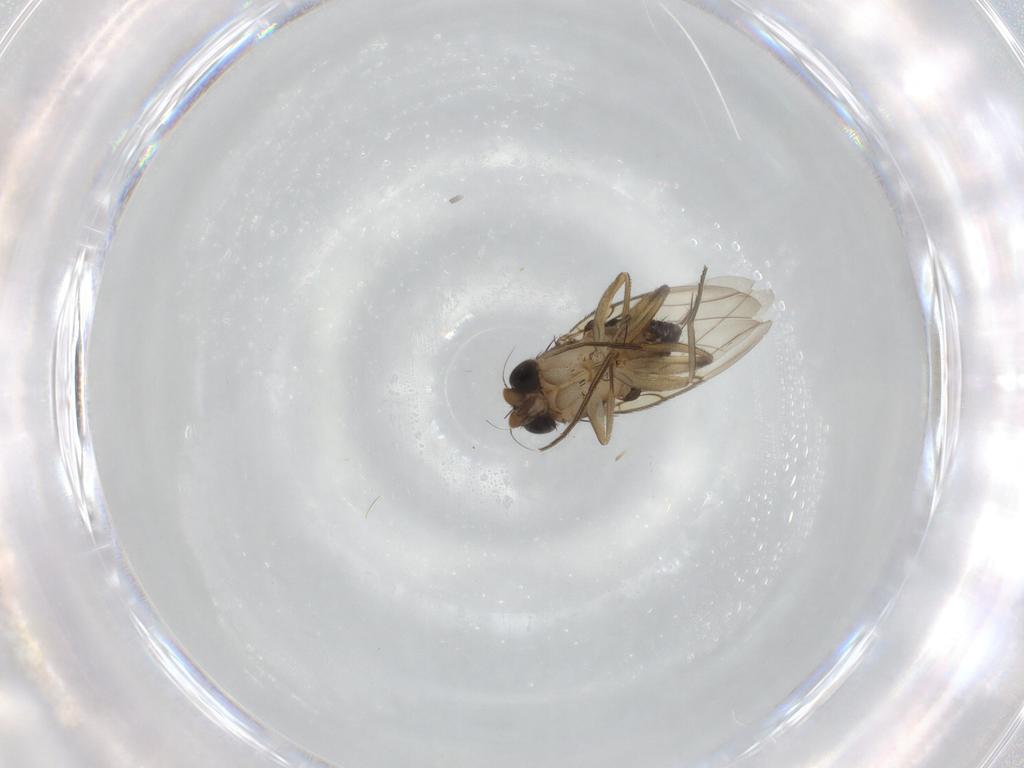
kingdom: Animalia
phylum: Arthropoda
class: Insecta
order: Diptera
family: Phoridae
